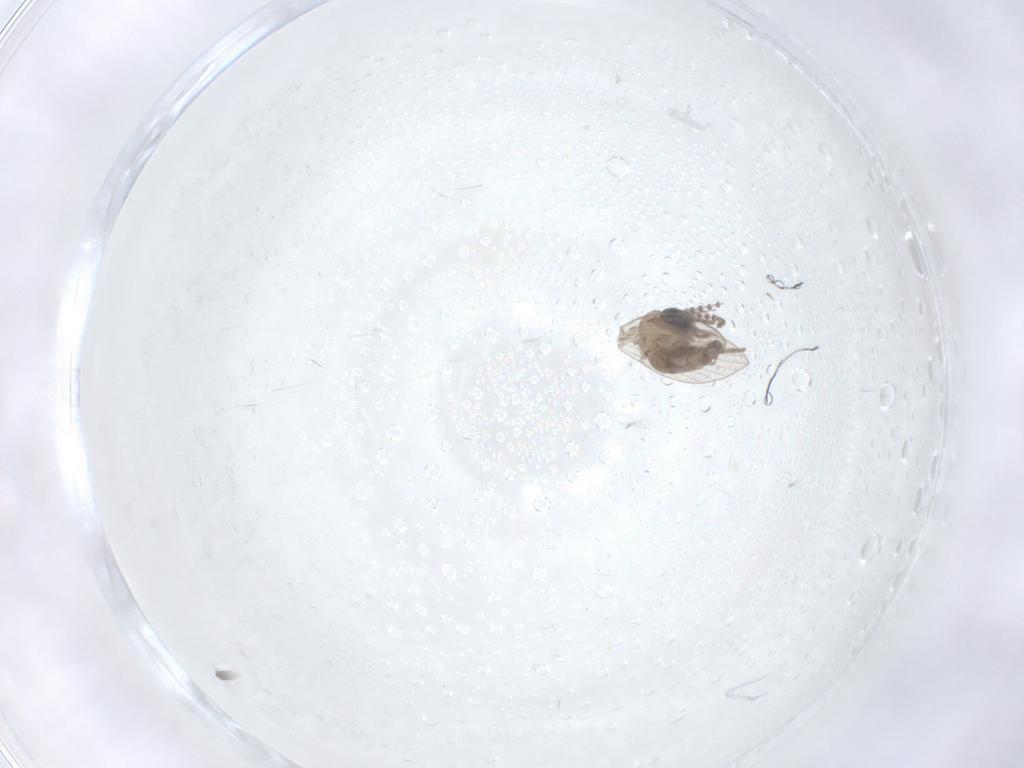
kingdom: Animalia
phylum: Arthropoda
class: Insecta
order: Diptera
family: Psychodidae
